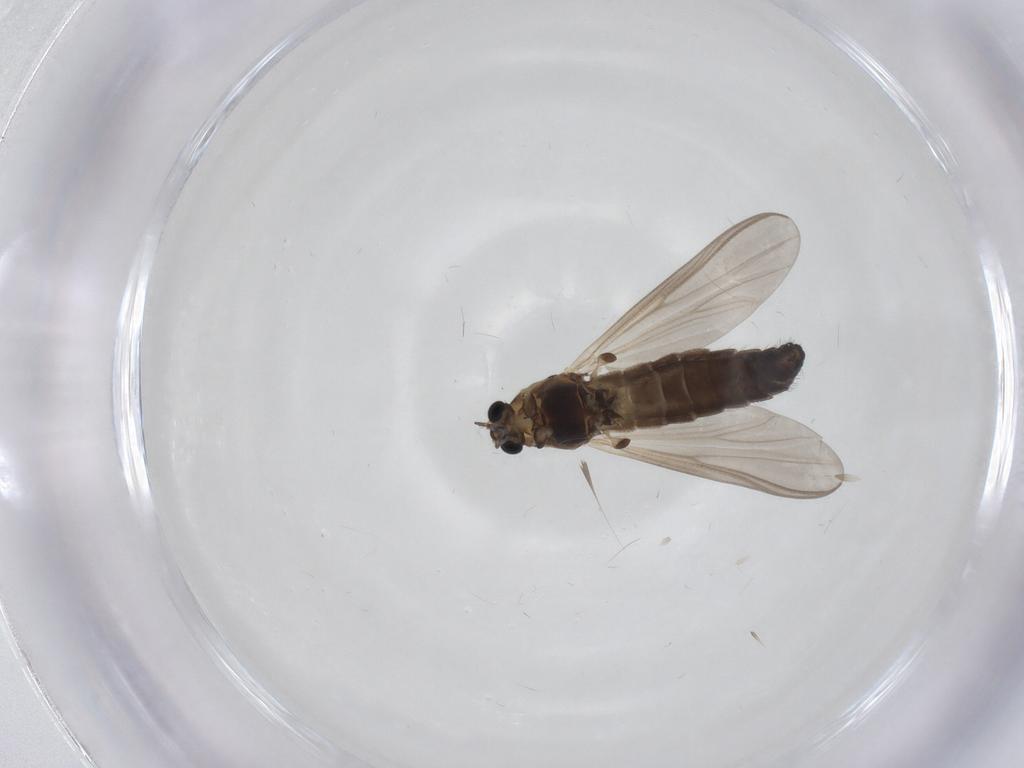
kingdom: Animalia
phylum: Arthropoda
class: Insecta
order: Diptera
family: Chironomidae
